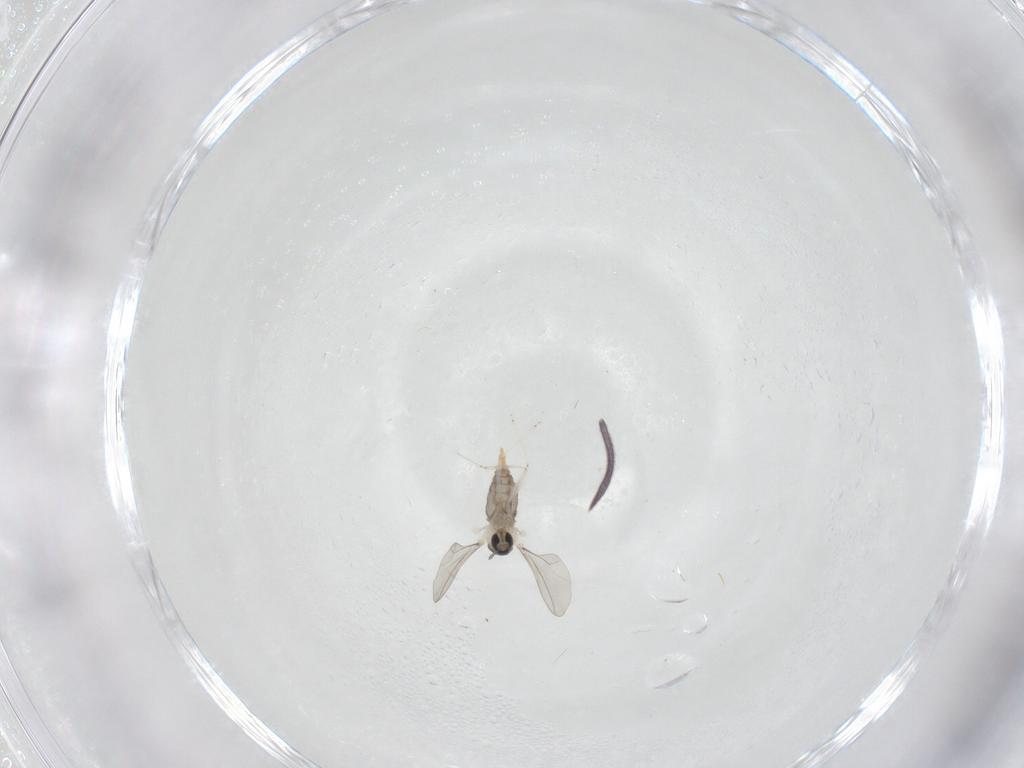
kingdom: Animalia
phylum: Arthropoda
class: Insecta
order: Diptera
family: Cecidomyiidae
